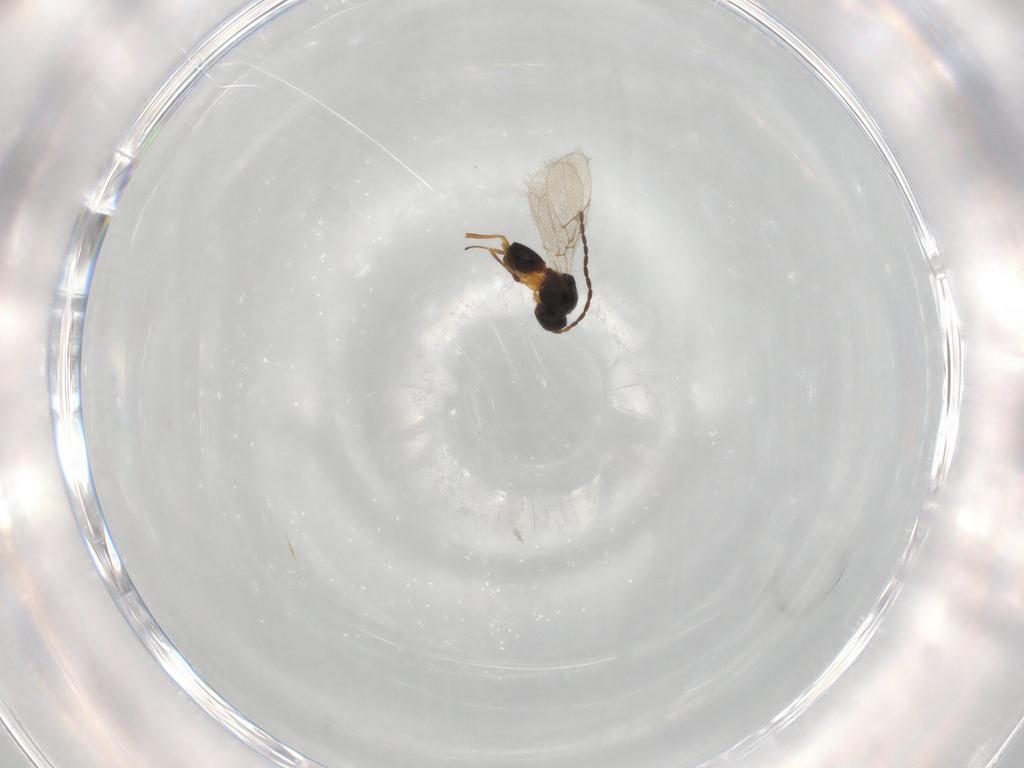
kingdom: Animalia
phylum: Arthropoda
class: Insecta
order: Hymenoptera
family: Figitidae
